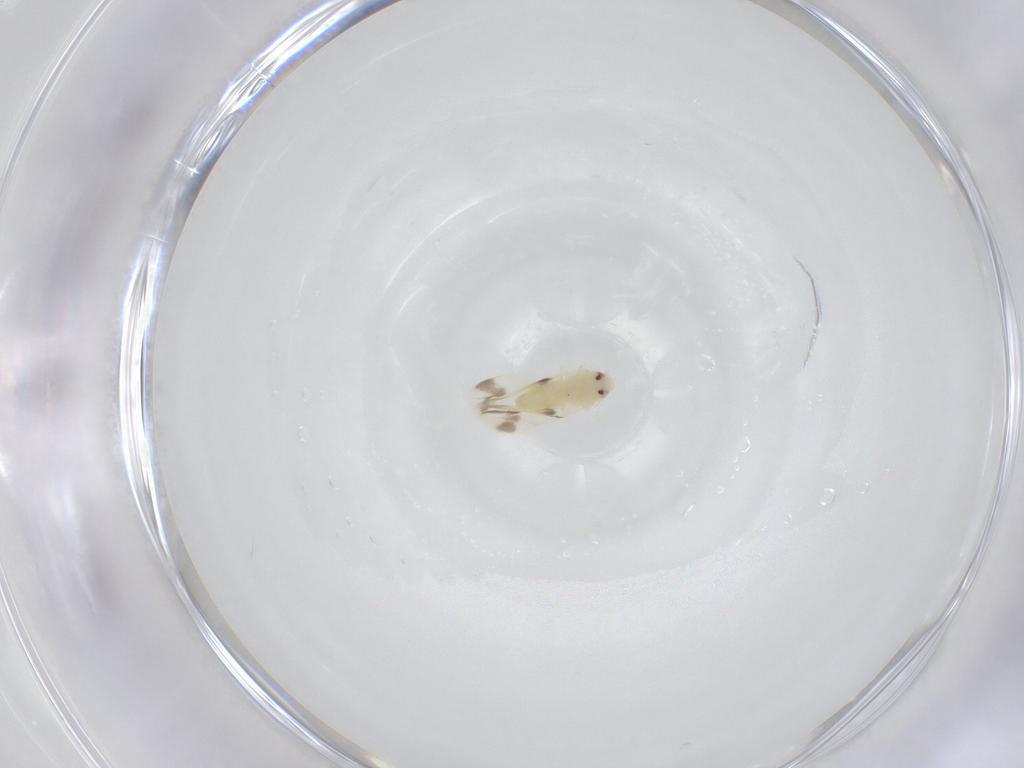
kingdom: Animalia
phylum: Arthropoda
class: Insecta
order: Hemiptera
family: Aleyrodidae
